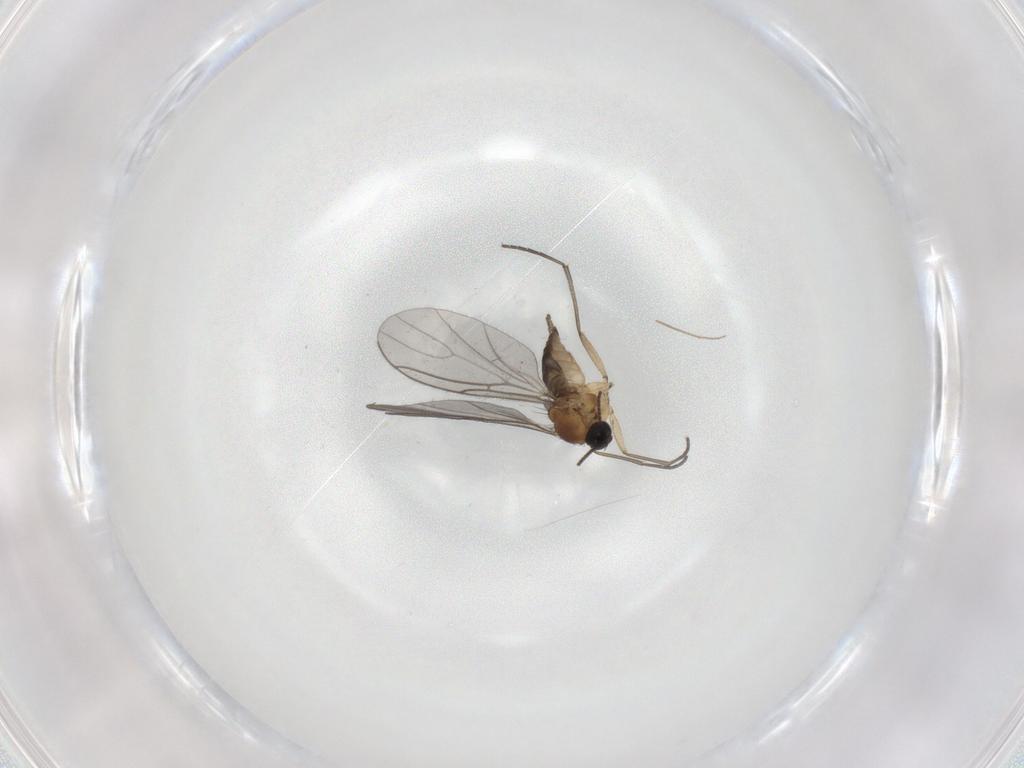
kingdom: Animalia
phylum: Arthropoda
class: Insecta
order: Diptera
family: Sciaridae
